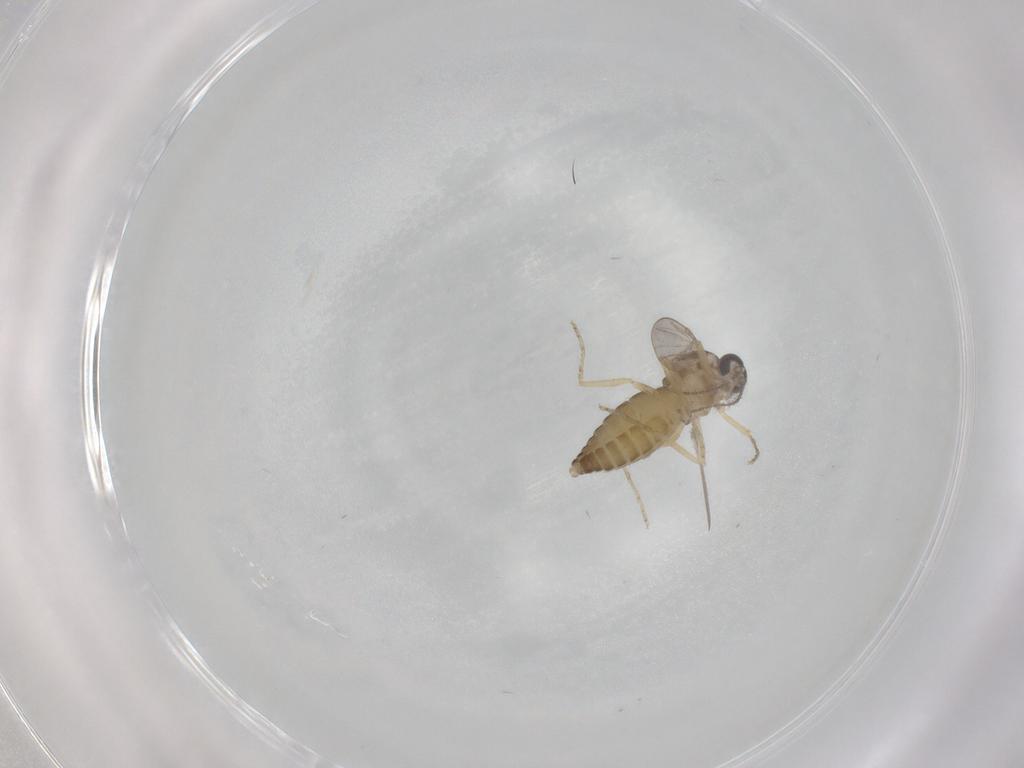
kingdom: Animalia
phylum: Arthropoda
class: Insecta
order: Diptera
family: Ceratopogonidae
